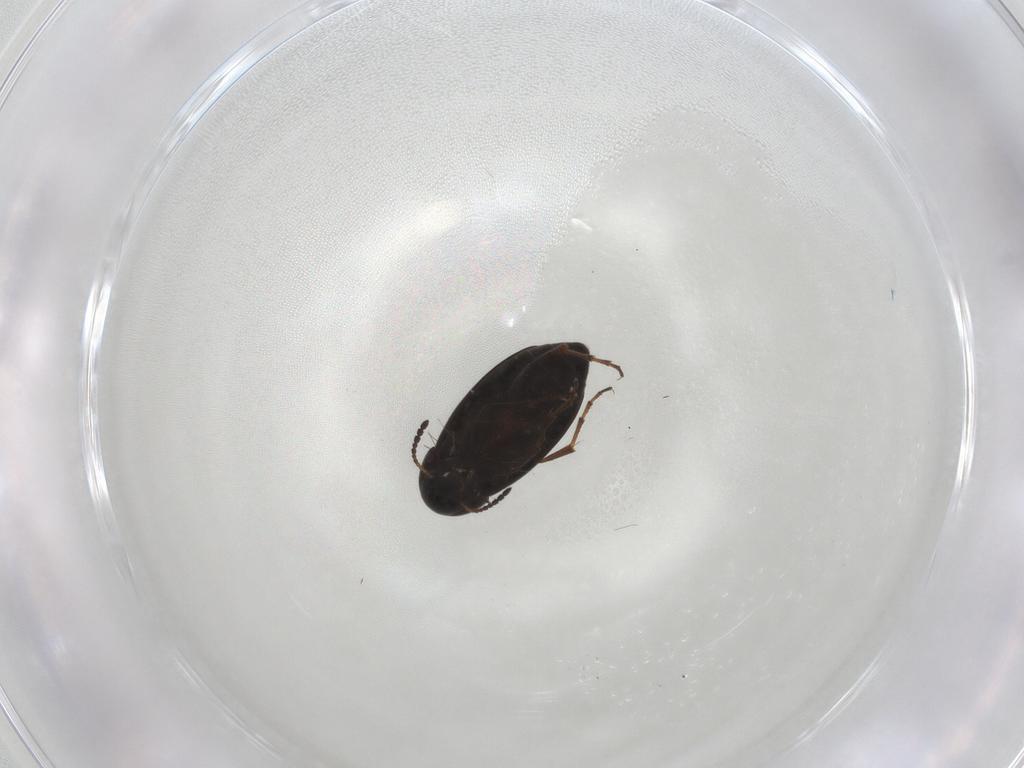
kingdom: Animalia
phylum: Arthropoda
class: Insecta
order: Coleoptera
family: Scraptiidae
